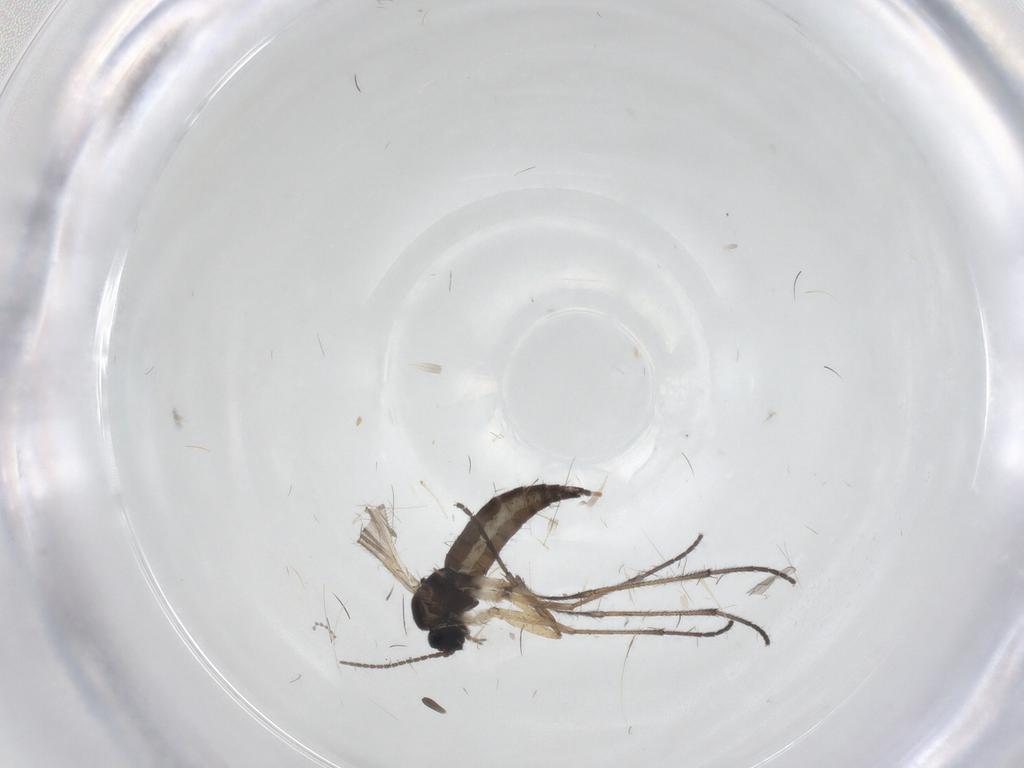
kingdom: Animalia
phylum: Arthropoda
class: Insecta
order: Diptera
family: Sciaridae
